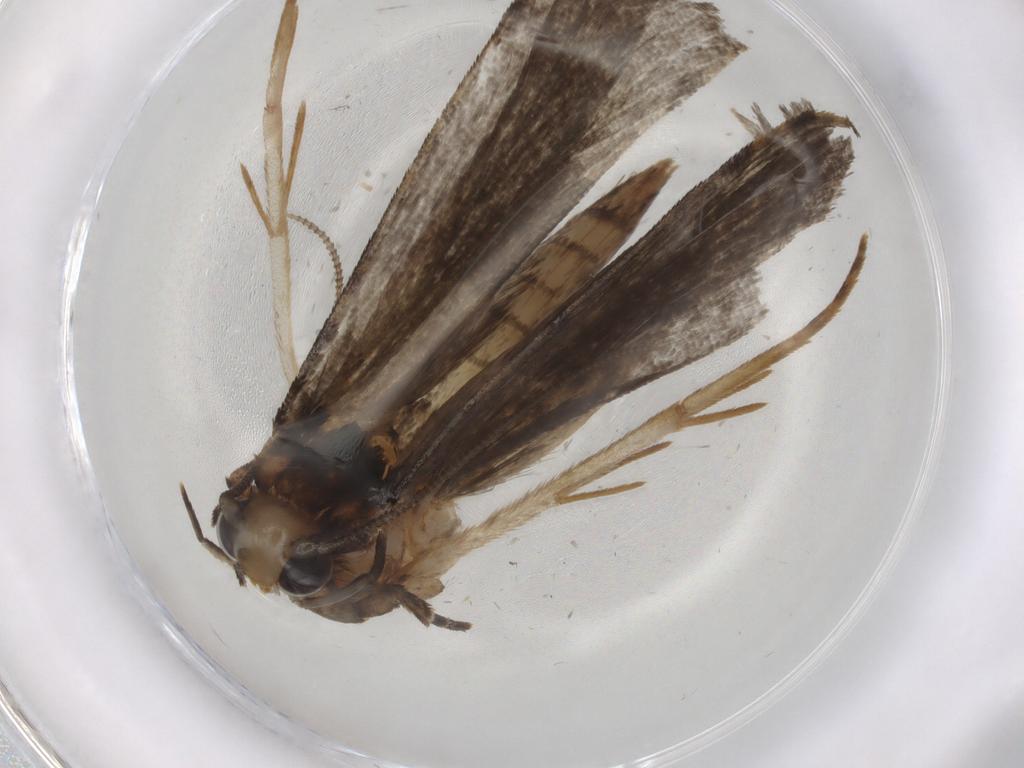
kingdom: Animalia
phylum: Arthropoda
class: Insecta
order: Lepidoptera
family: Tineidae
